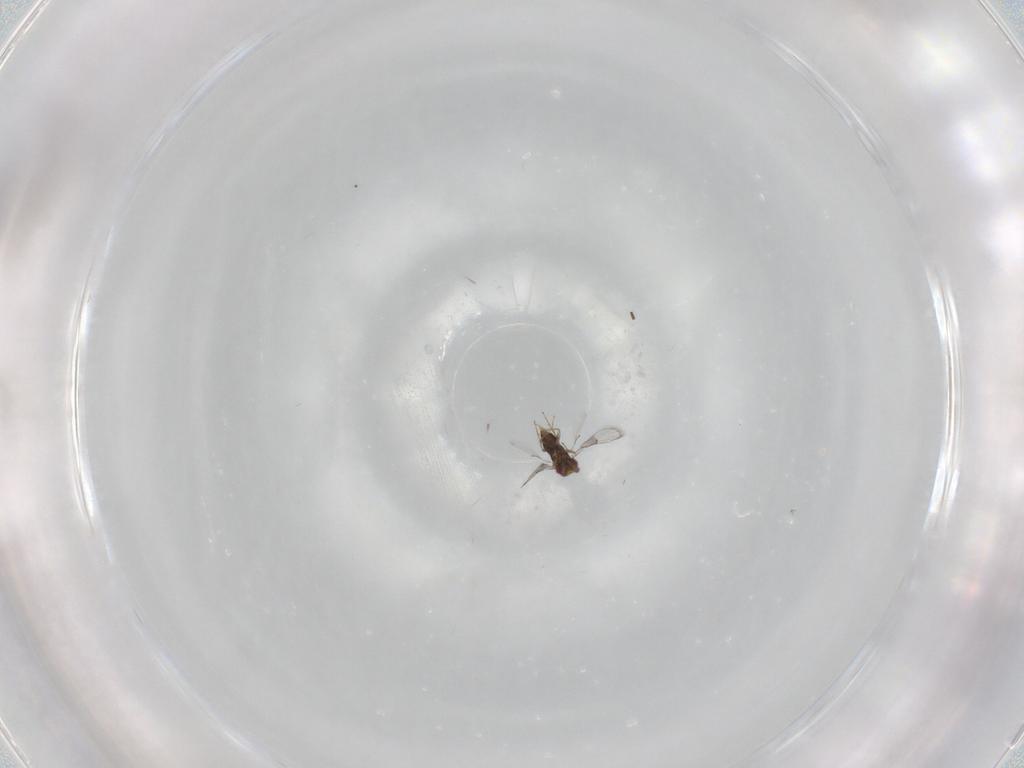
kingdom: Animalia
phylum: Arthropoda
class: Insecta
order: Hymenoptera
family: Trichogrammatidae
